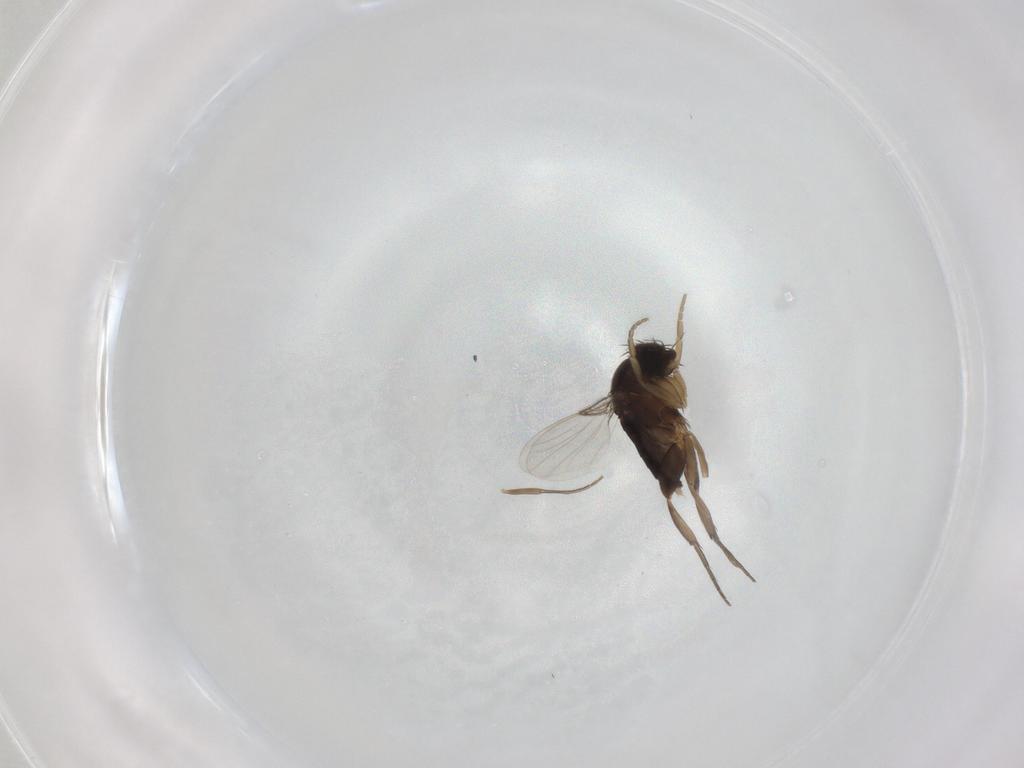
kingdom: Animalia
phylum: Arthropoda
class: Insecta
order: Diptera
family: Phoridae
